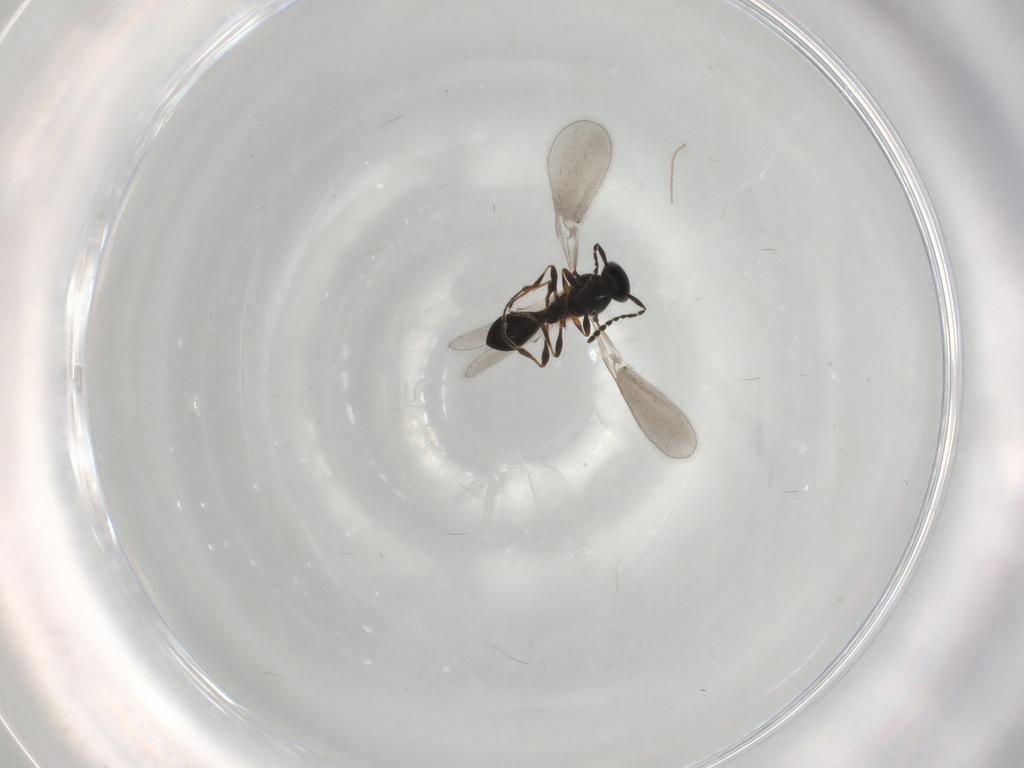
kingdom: Animalia
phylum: Arthropoda
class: Insecta
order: Hymenoptera
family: Platygastridae
